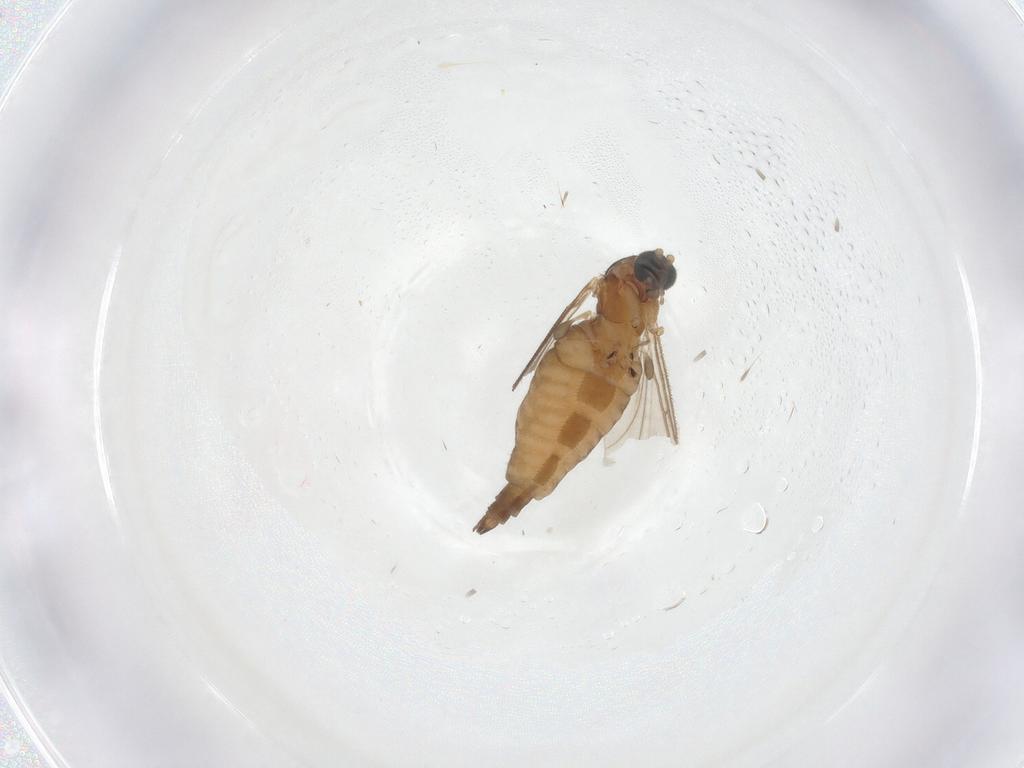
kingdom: Animalia
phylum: Arthropoda
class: Insecta
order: Diptera
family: Sciaridae
